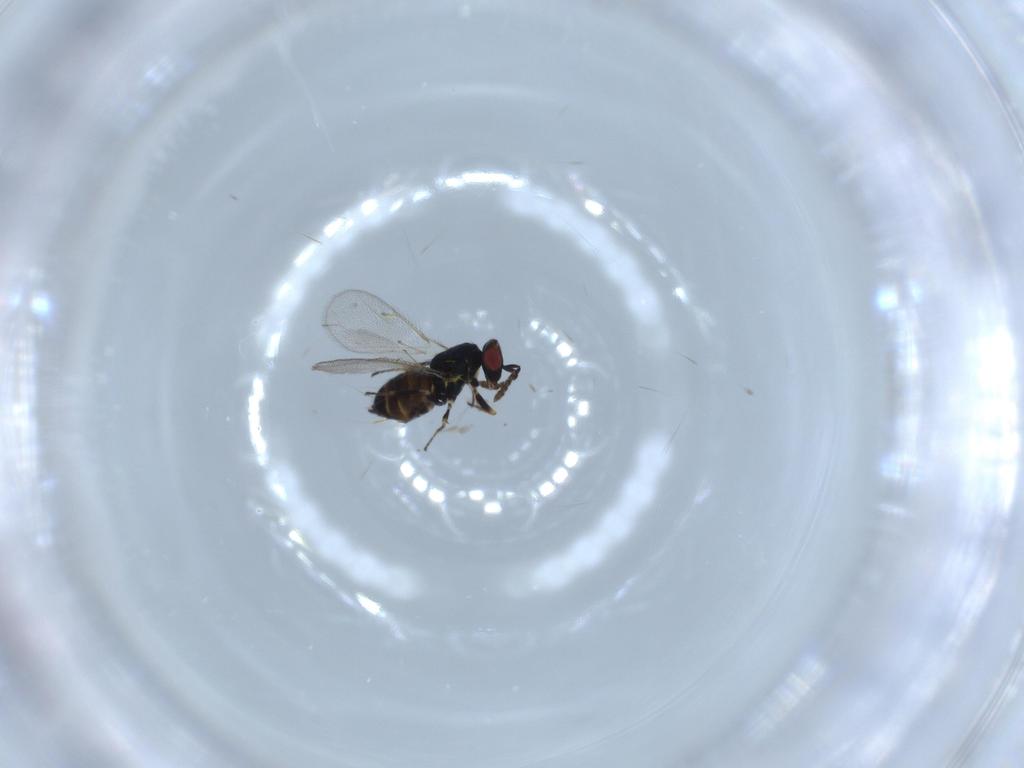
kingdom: Animalia
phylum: Arthropoda
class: Insecta
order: Hymenoptera
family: Eulophidae
